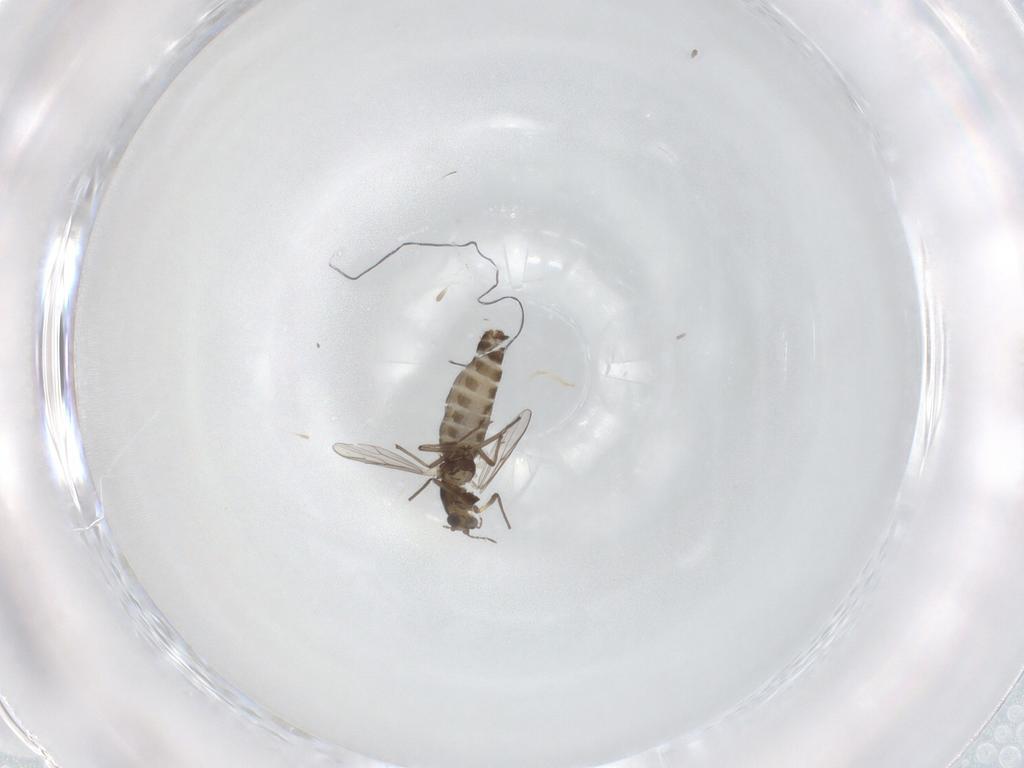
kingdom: Animalia
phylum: Arthropoda
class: Insecta
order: Diptera
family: Chironomidae
